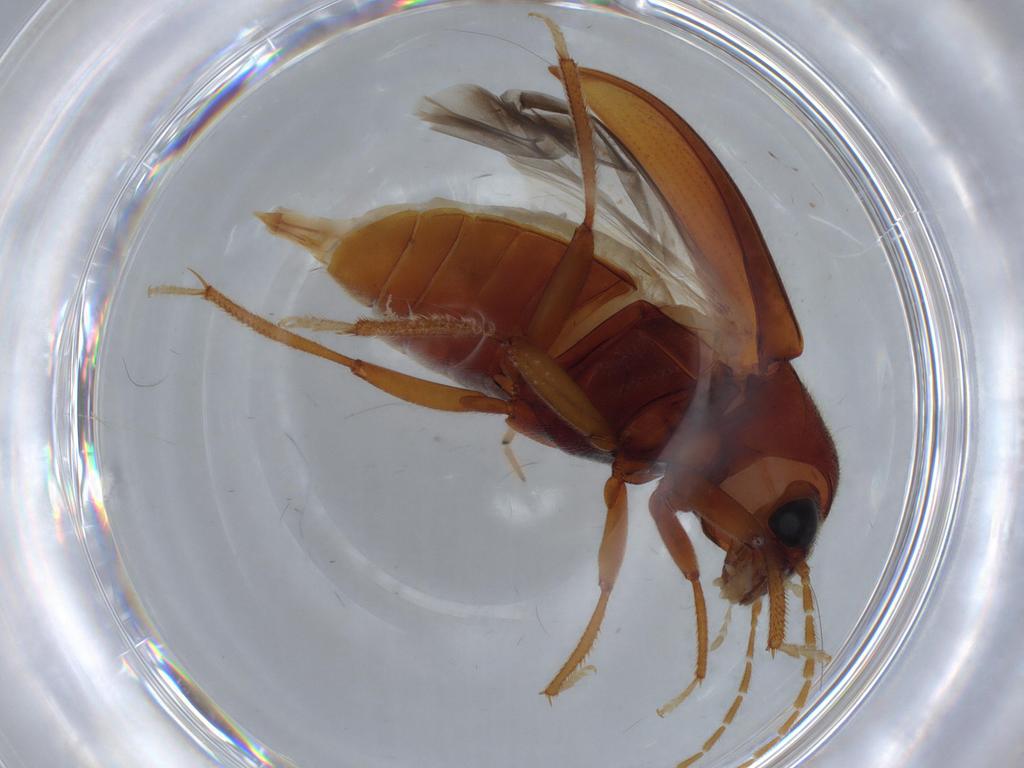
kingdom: Animalia
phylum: Arthropoda
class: Insecta
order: Coleoptera
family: Ptilodactylidae
